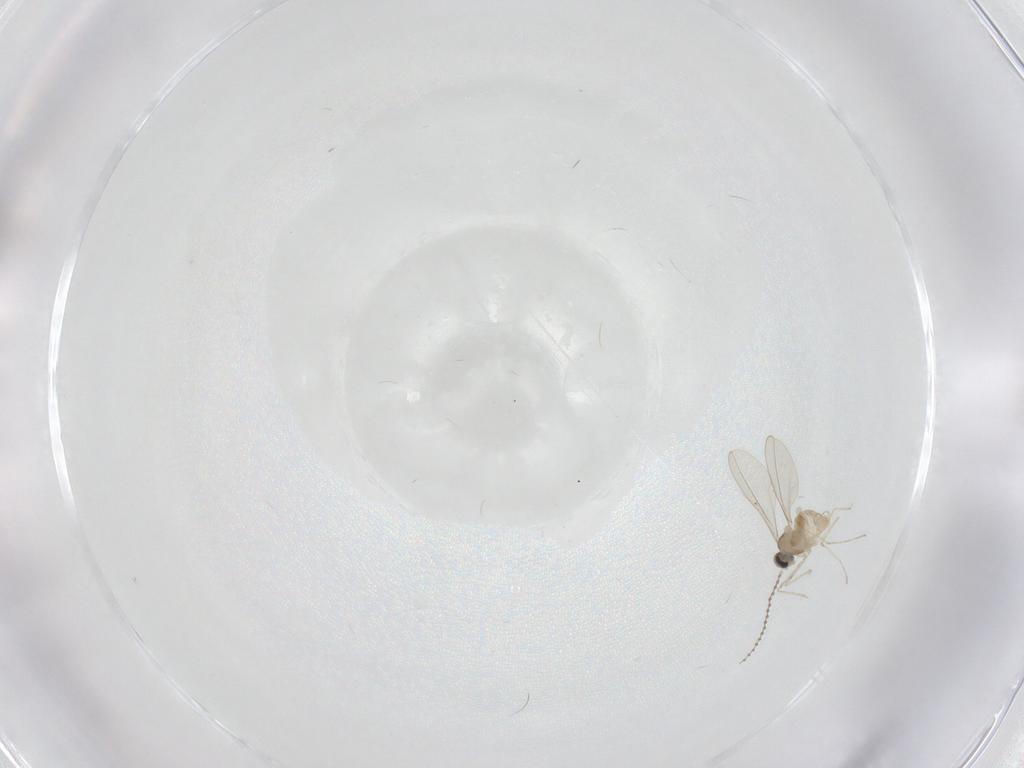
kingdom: Animalia
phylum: Arthropoda
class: Insecta
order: Diptera
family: Cecidomyiidae
